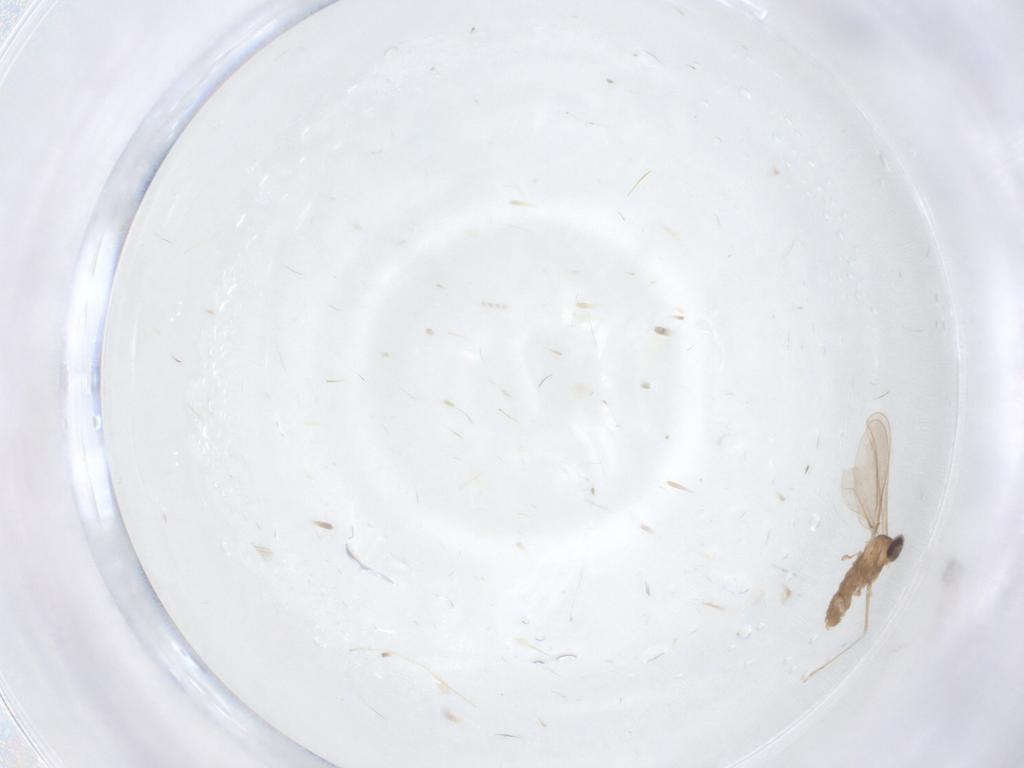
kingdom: Animalia
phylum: Arthropoda
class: Insecta
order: Diptera
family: Cecidomyiidae
